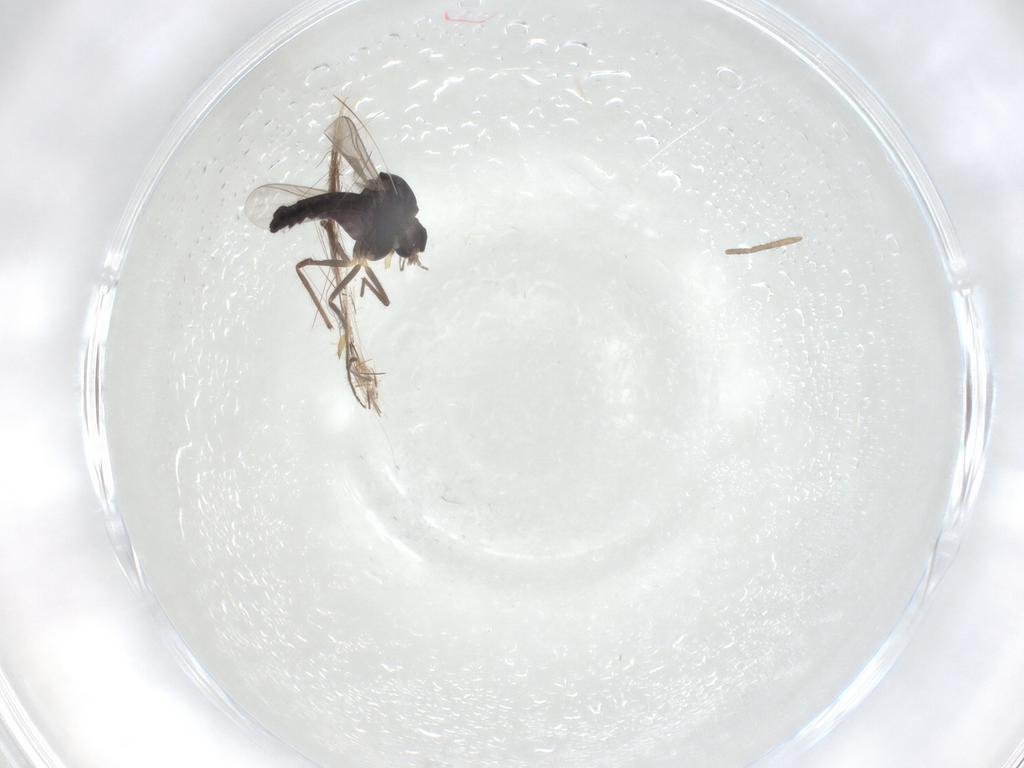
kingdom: Animalia
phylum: Arthropoda
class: Insecta
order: Diptera
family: Chironomidae
